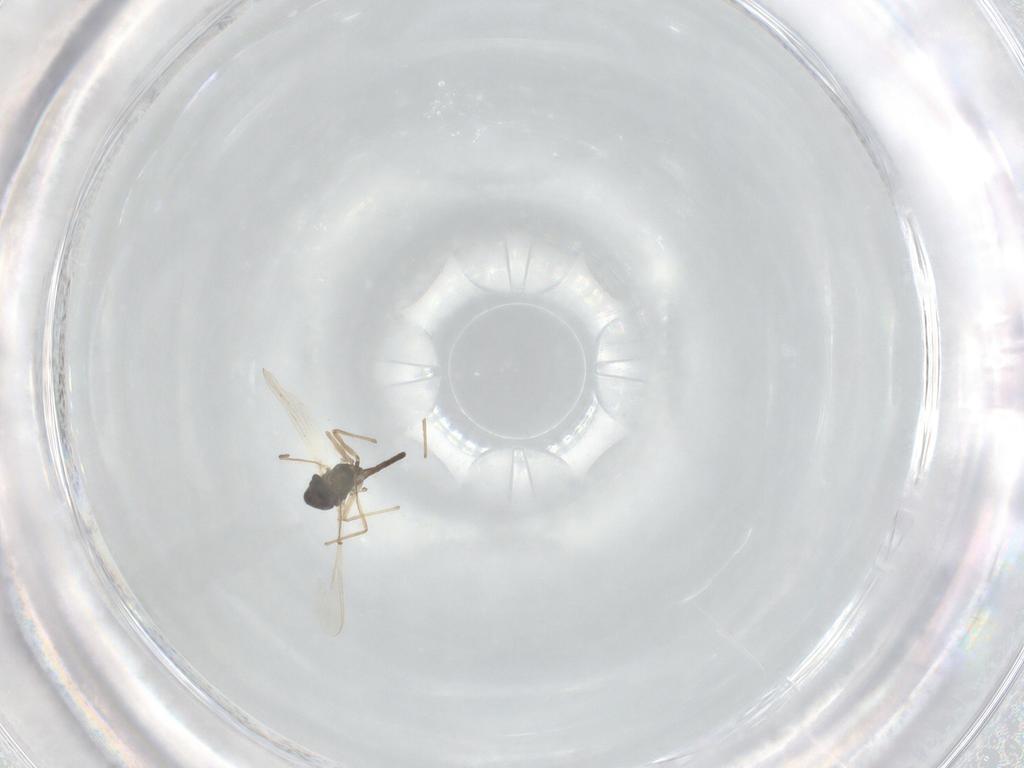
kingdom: Animalia
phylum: Arthropoda
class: Insecta
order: Diptera
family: Chironomidae
